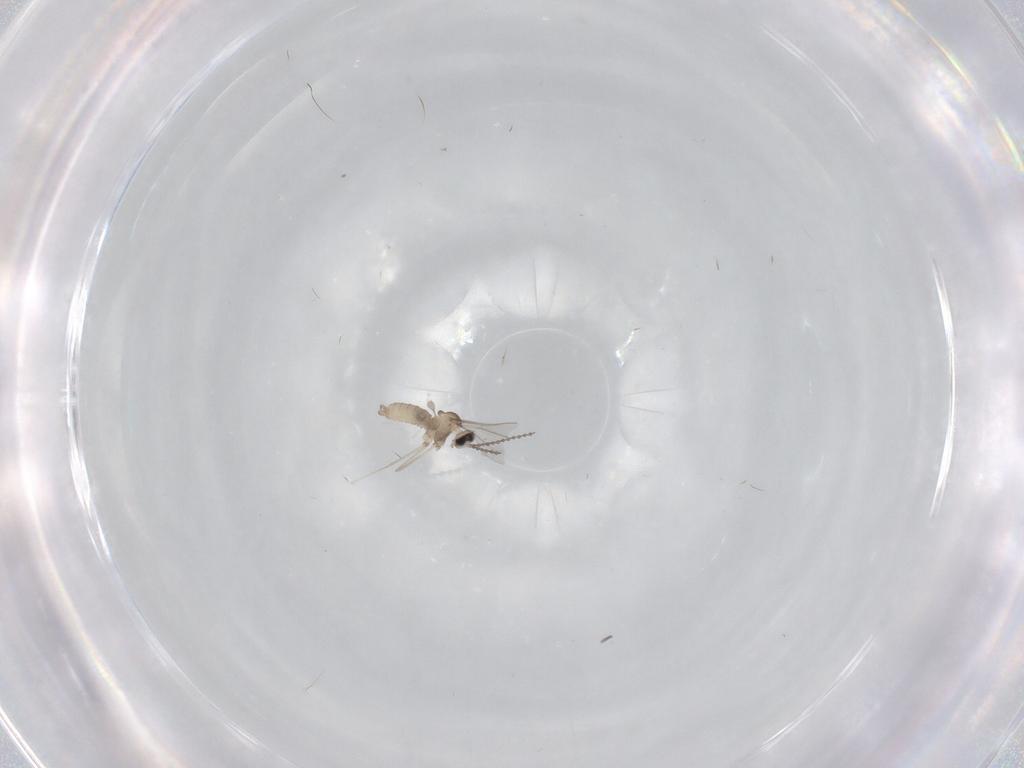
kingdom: Animalia
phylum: Arthropoda
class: Insecta
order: Diptera
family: Cecidomyiidae
